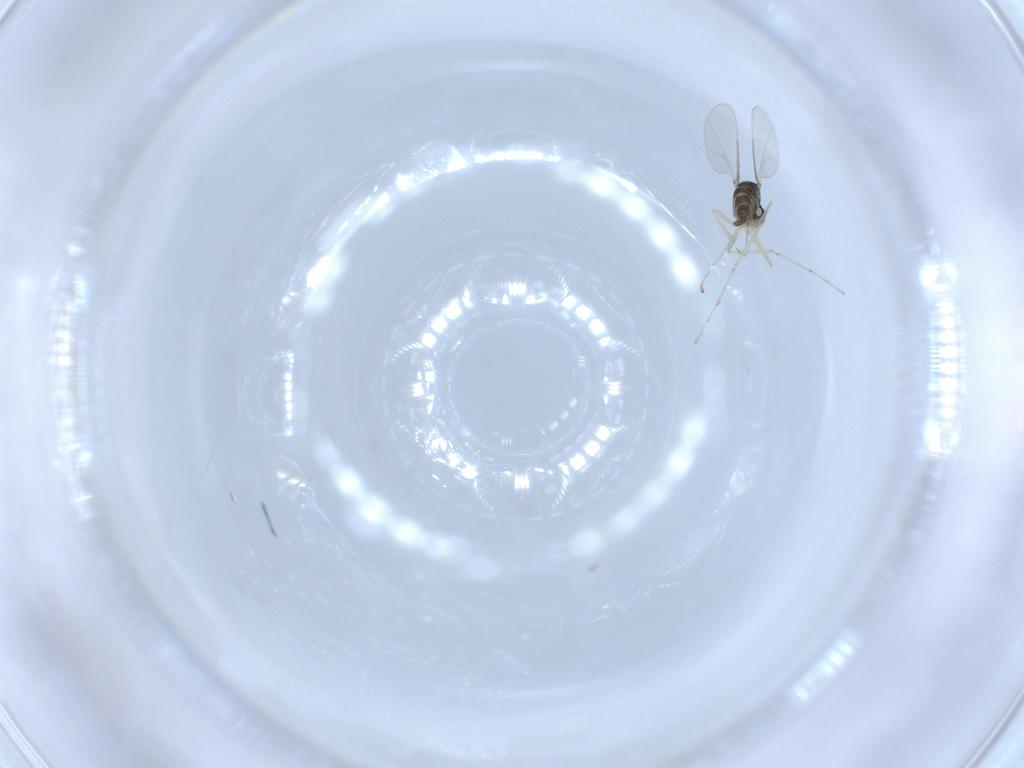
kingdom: Animalia
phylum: Arthropoda
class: Insecta
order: Diptera
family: Cecidomyiidae
